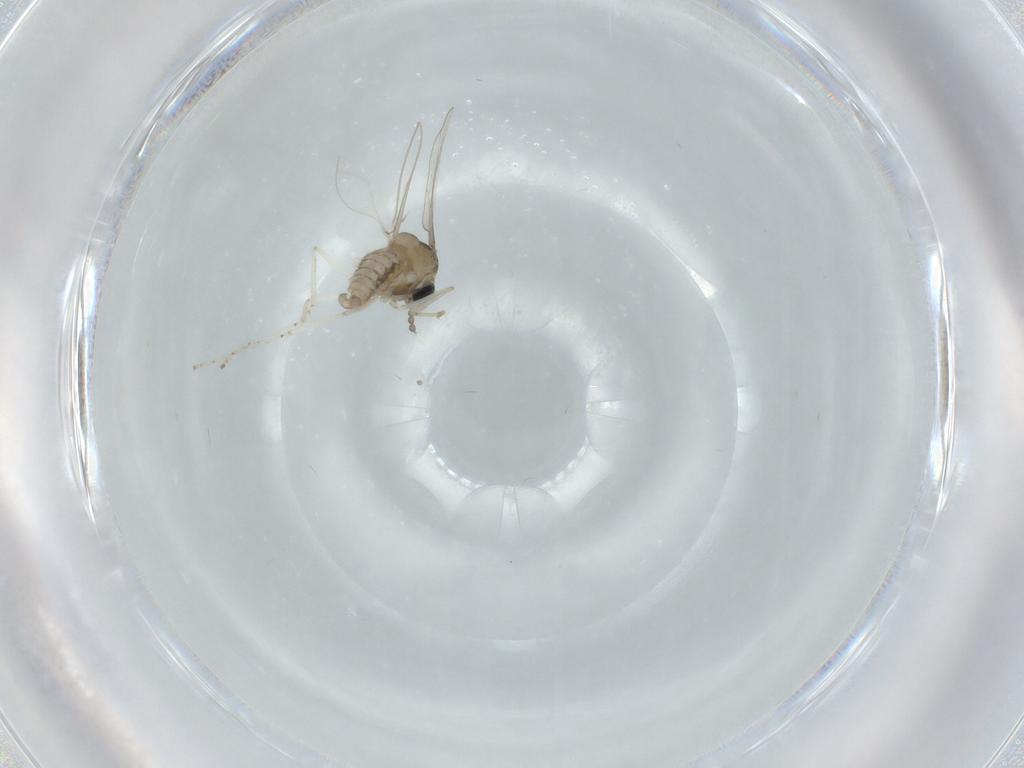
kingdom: Animalia
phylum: Arthropoda
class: Insecta
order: Diptera
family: Cecidomyiidae
